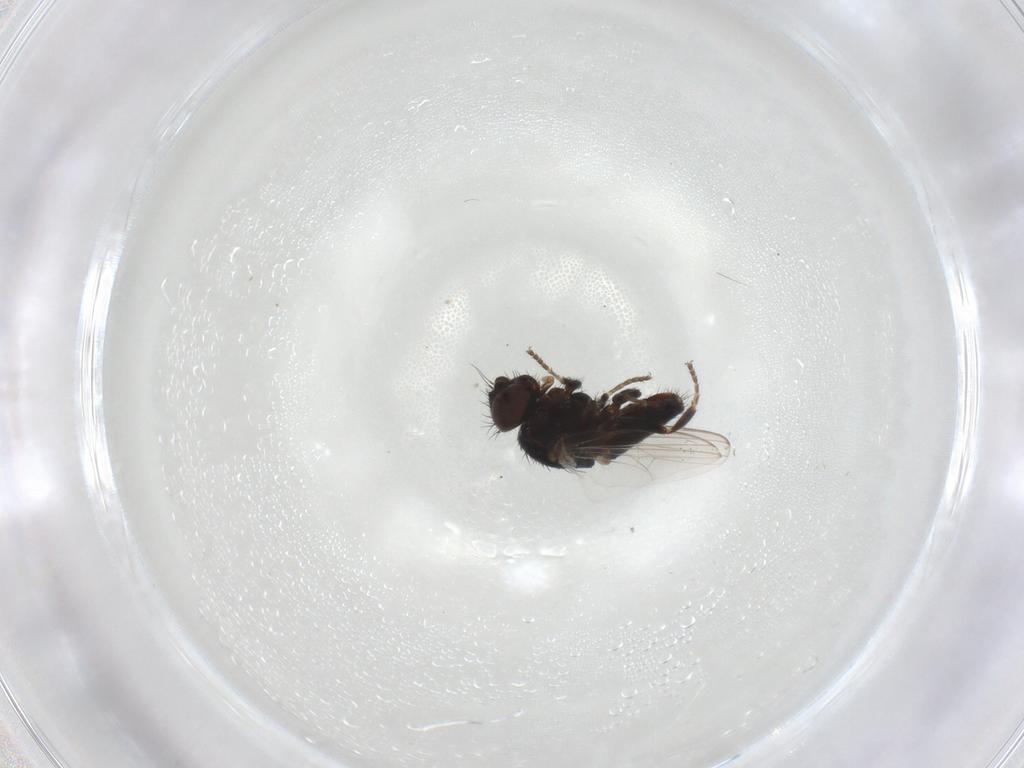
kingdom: Animalia
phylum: Arthropoda
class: Insecta
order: Diptera
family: Chloropidae
